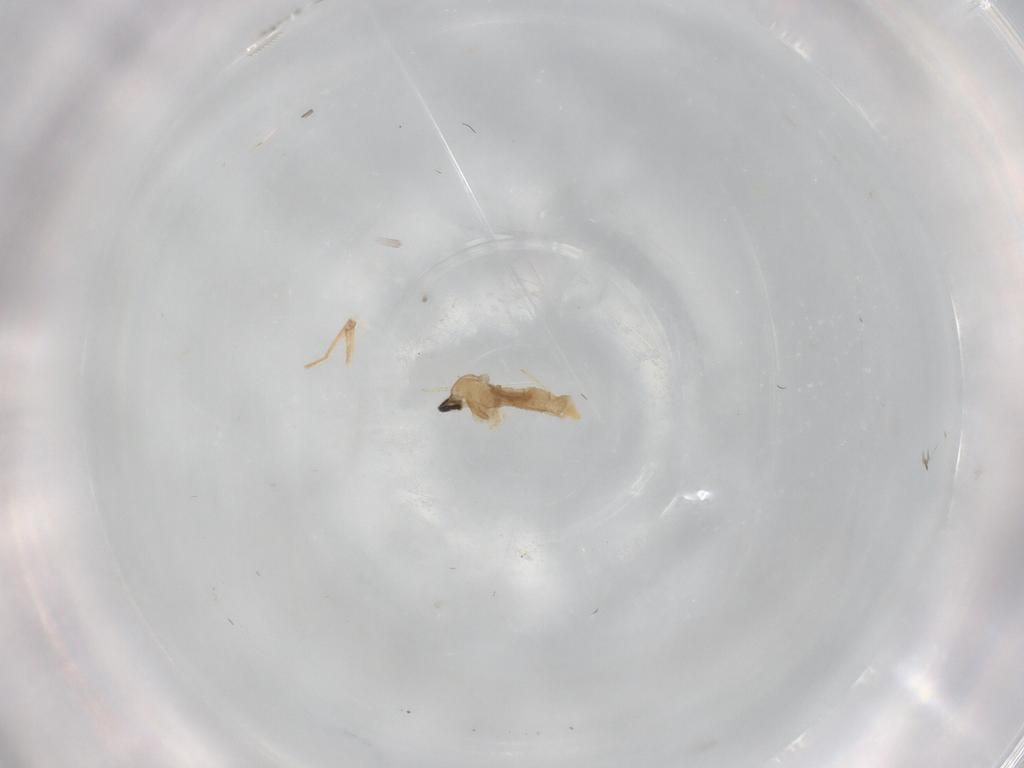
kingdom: Animalia
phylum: Arthropoda
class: Insecta
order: Diptera
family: Cecidomyiidae
